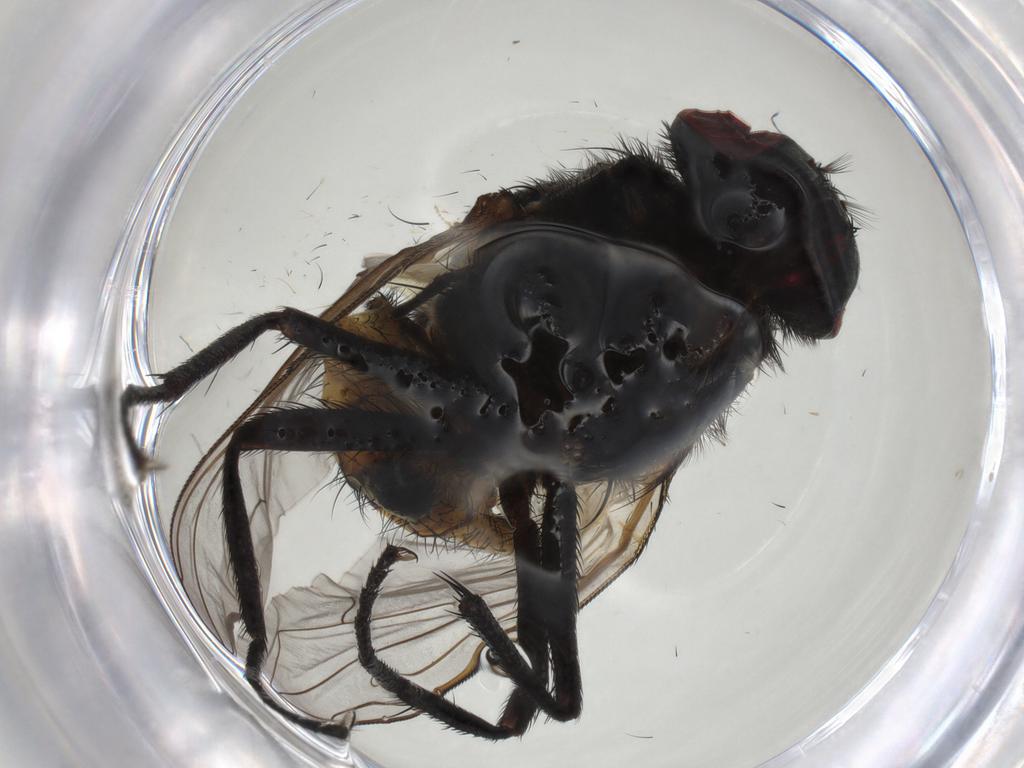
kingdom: Animalia
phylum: Arthropoda
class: Insecta
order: Diptera
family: Muscidae
